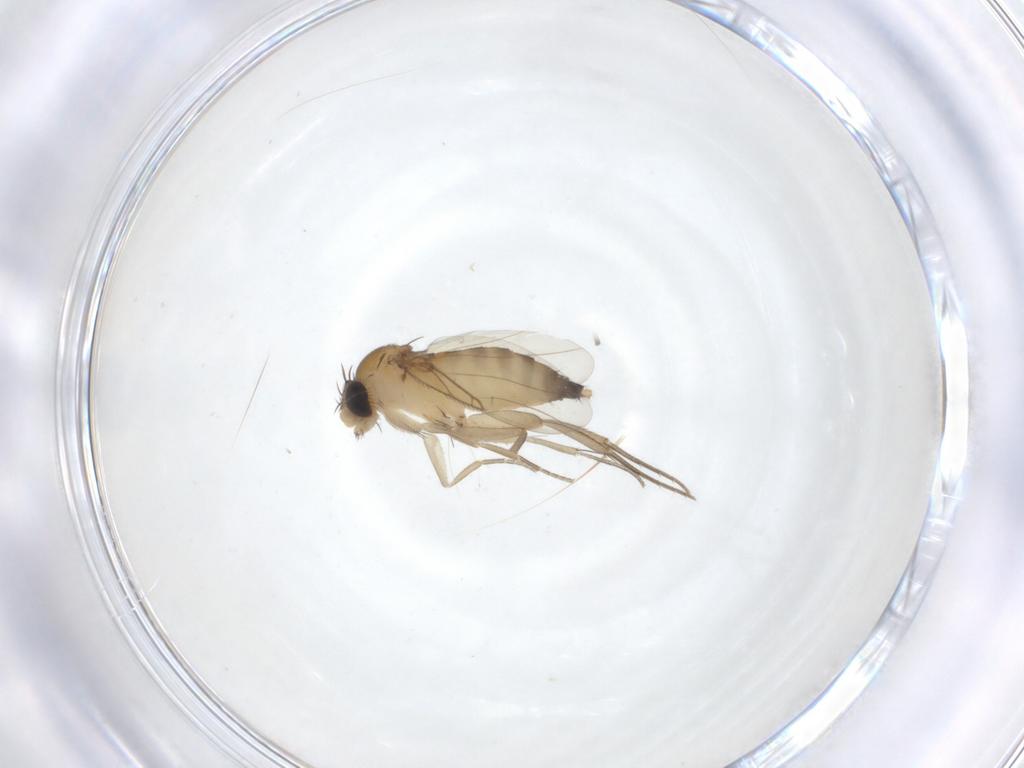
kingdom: Animalia
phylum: Arthropoda
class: Insecta
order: Diptera
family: Phoridae
